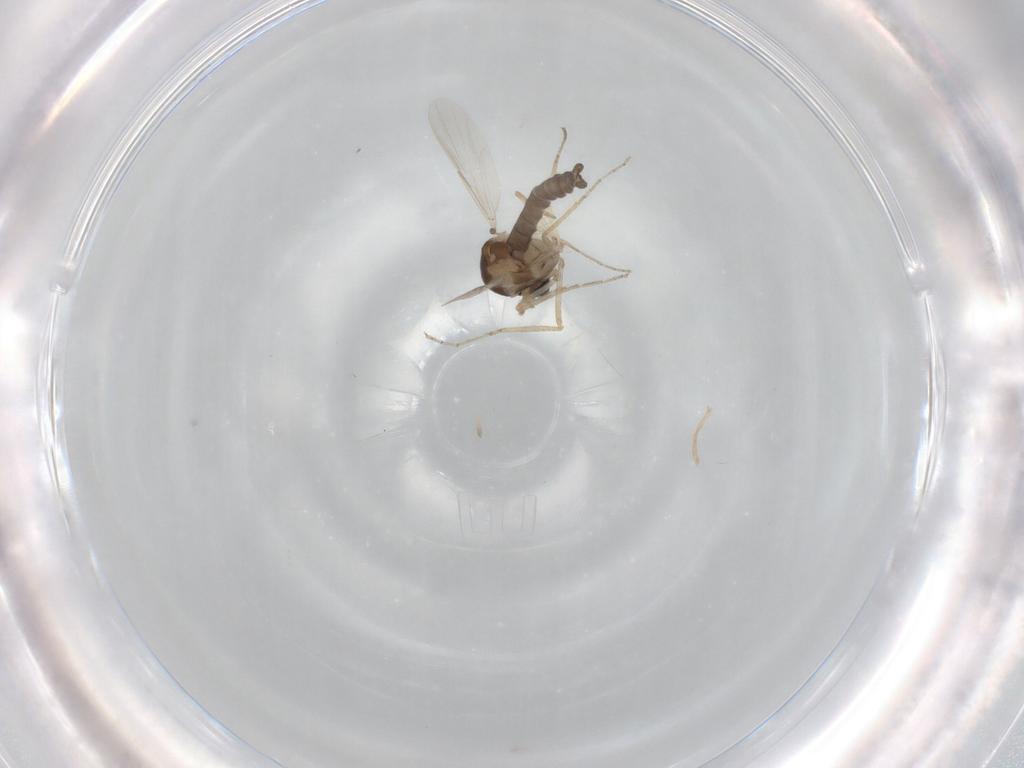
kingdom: Animalia
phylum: Arthropoda
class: Insecta
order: Diptera
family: Ceratopogonidae
